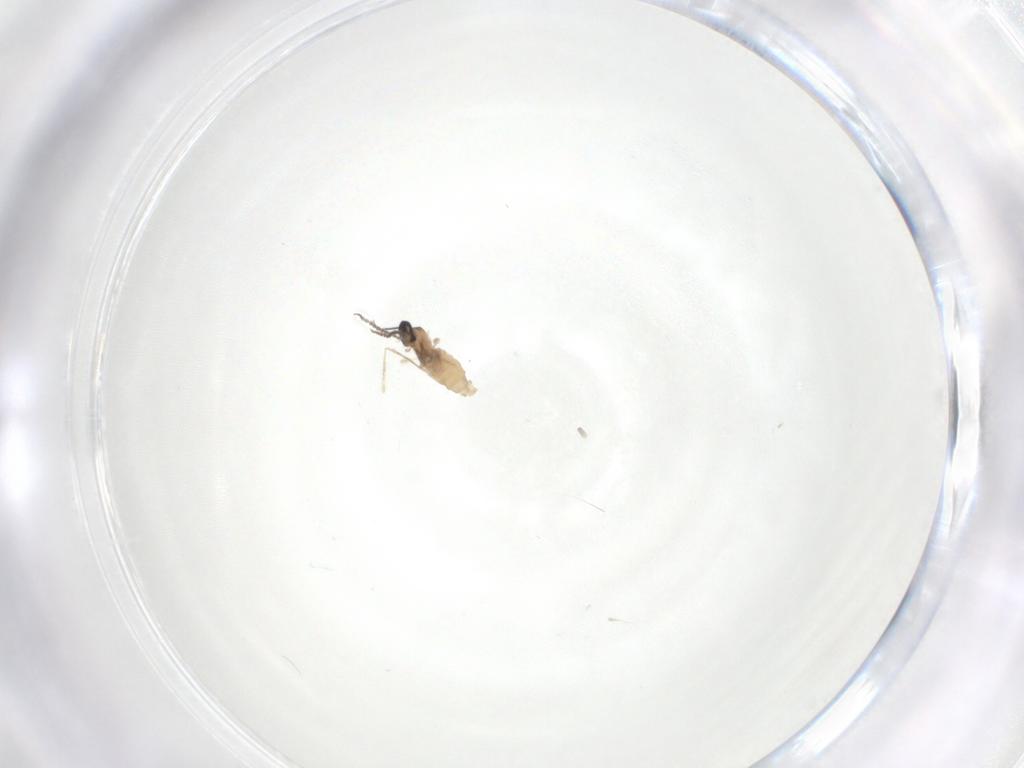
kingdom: Animalia
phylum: Arthropoda
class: Insecta
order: Diptera
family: Cecidomyiidae
